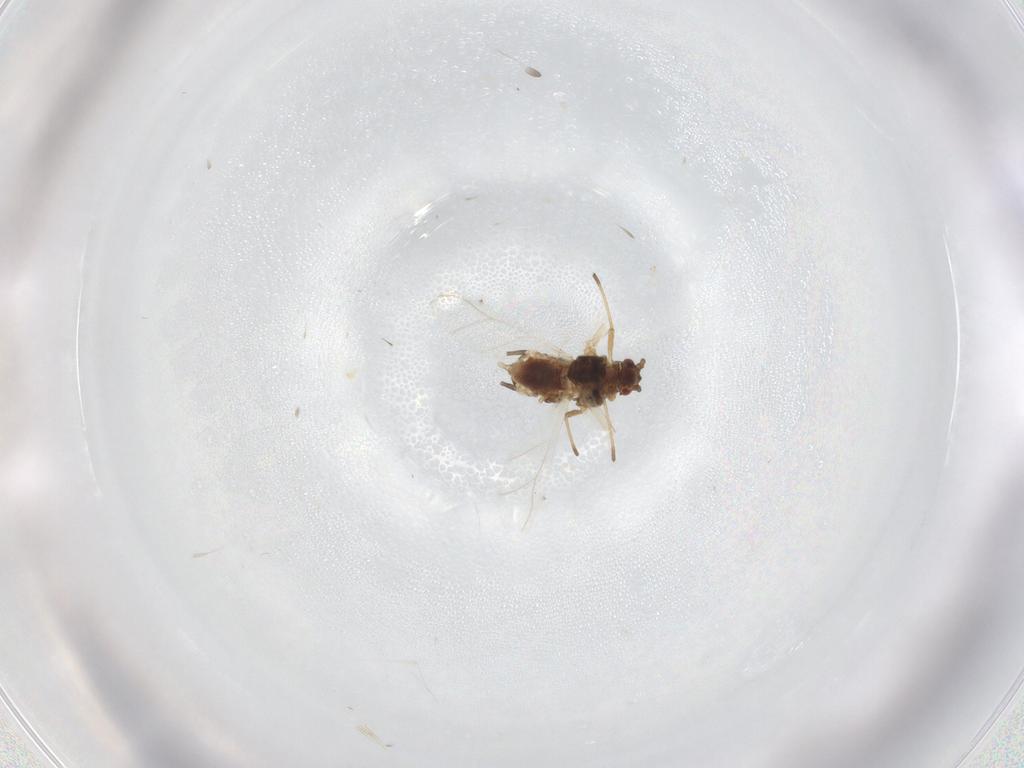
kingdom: Animalia
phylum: Arthropoda
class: Insecta
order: Hemiptera
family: Aphididae
